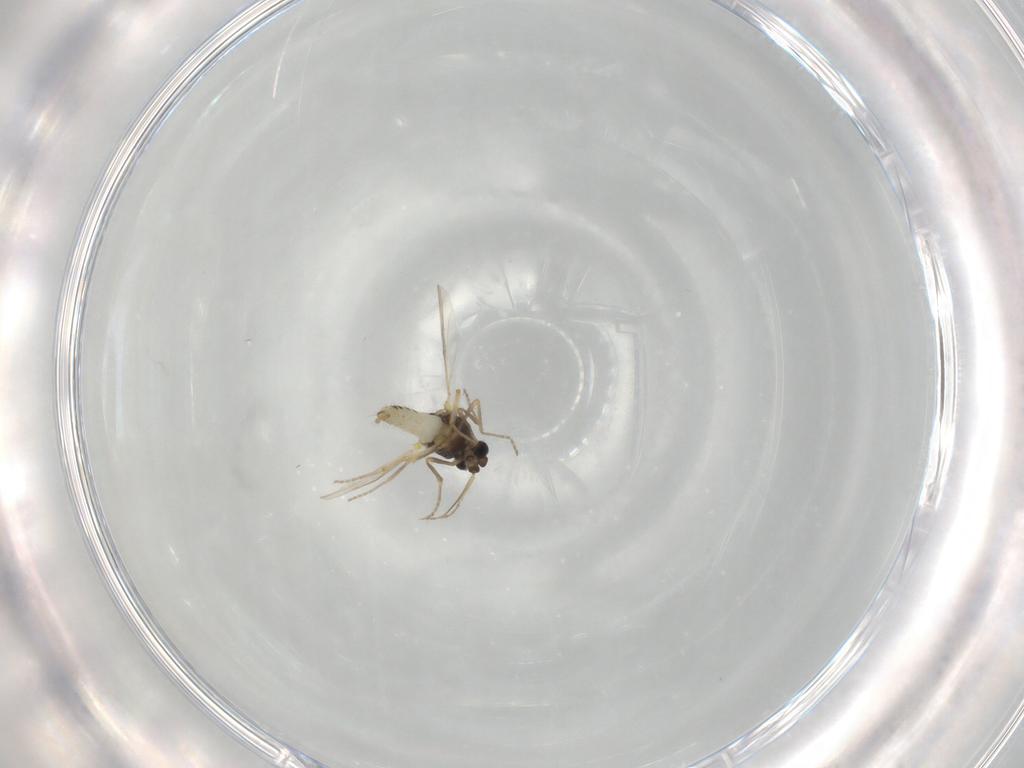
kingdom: Animalia
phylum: Arthropoda
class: Insecta
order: Diptera
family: Ceratopogonidae
